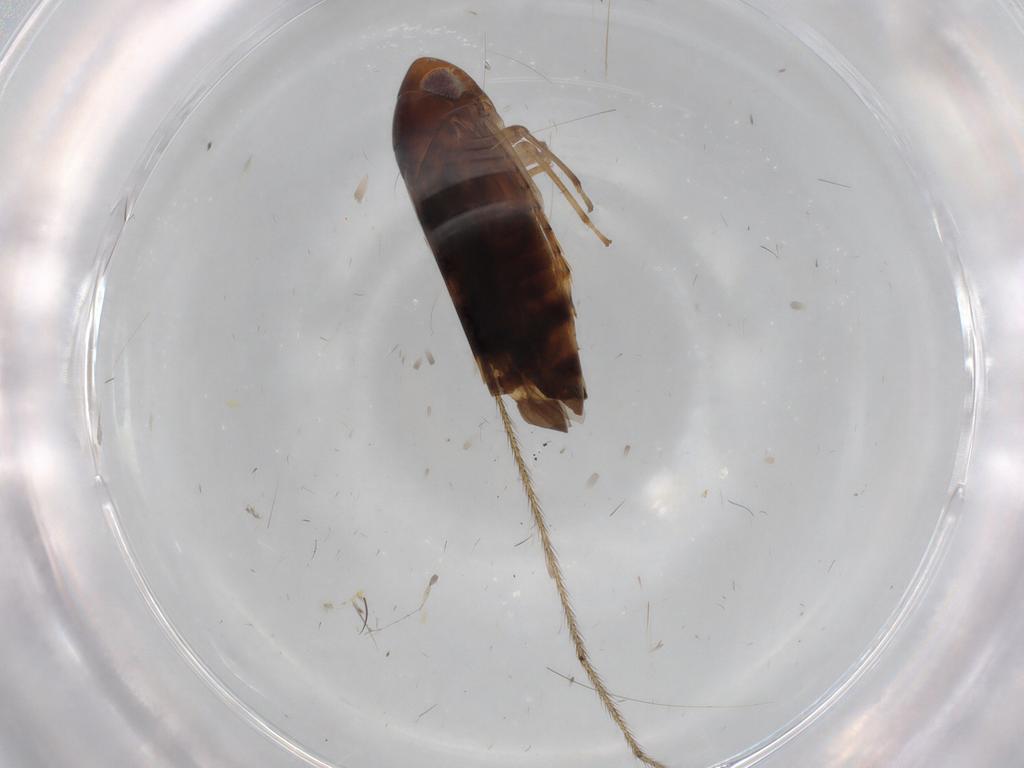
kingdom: Animalia
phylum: Arthropoda
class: Insecta
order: Hemiptera
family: Cicadellidae
